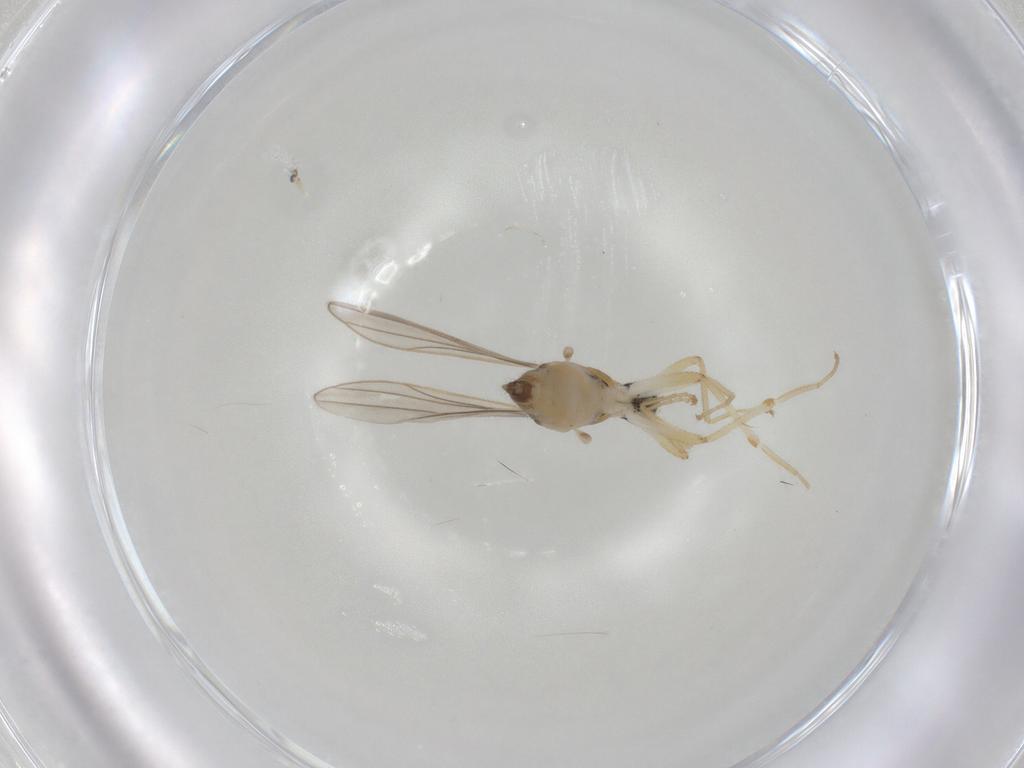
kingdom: Animalia
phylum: Arthropoda
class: Insecta
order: Diptera
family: Hybotidae
